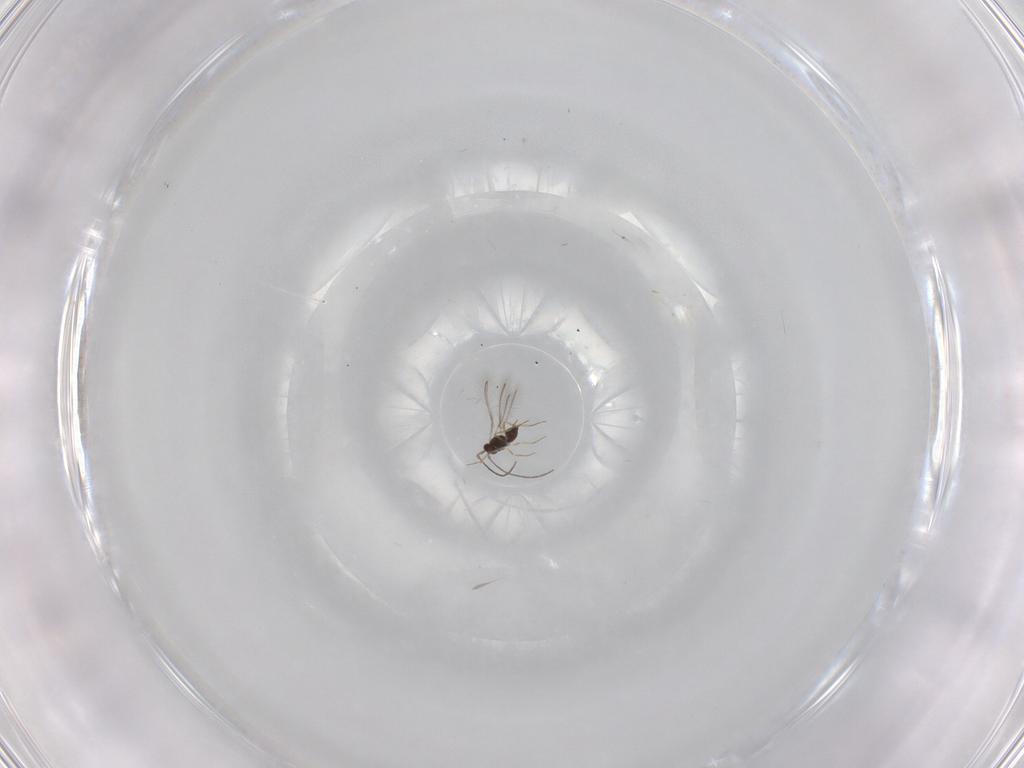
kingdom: Animalia
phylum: Arthropoda
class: Insecta
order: Hymenoptera
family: Mymaridae
